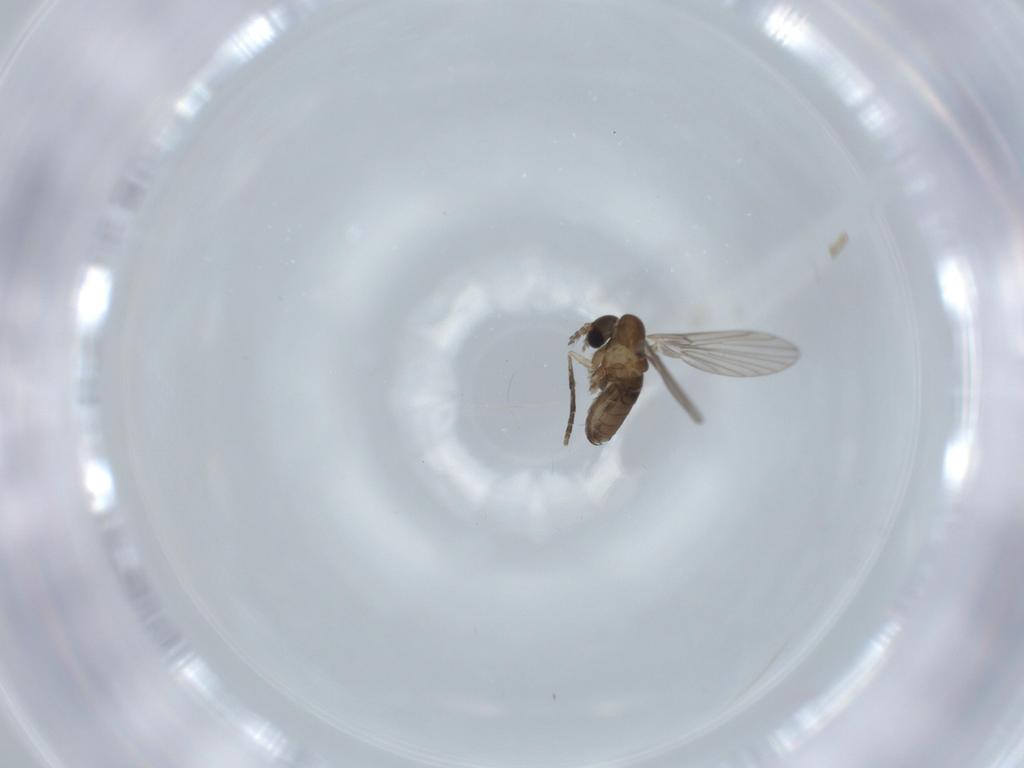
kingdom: Animalia
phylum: Arthropoda
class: Insecta
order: Diptera
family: Psychodidae
